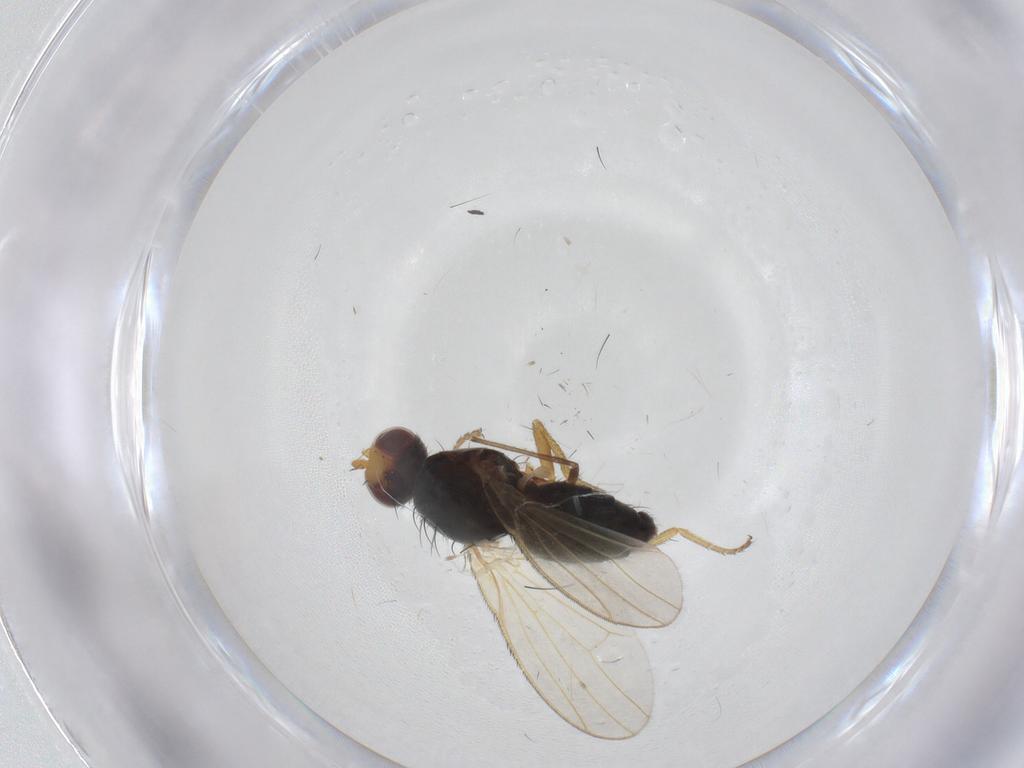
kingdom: Animalia
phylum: Arthropoda
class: Insecta
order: Diptera
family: Heleomyzidae
